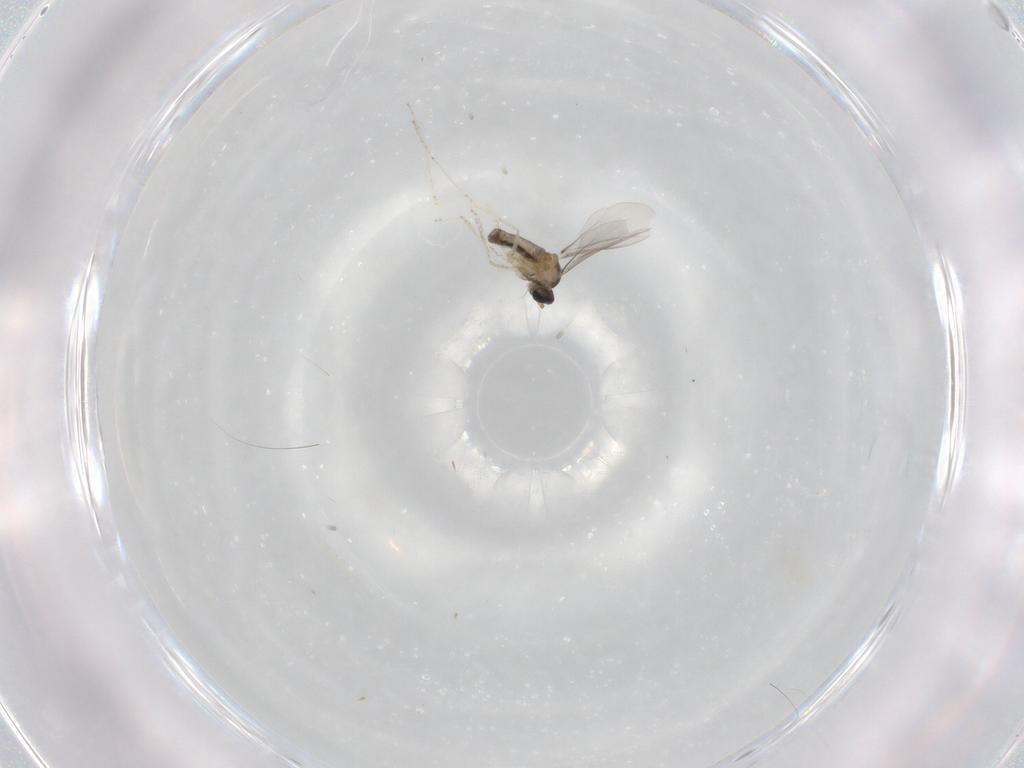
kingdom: Animalia
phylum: Arthropoda
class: Insecta
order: Diptera
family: Cecidomyiidae
